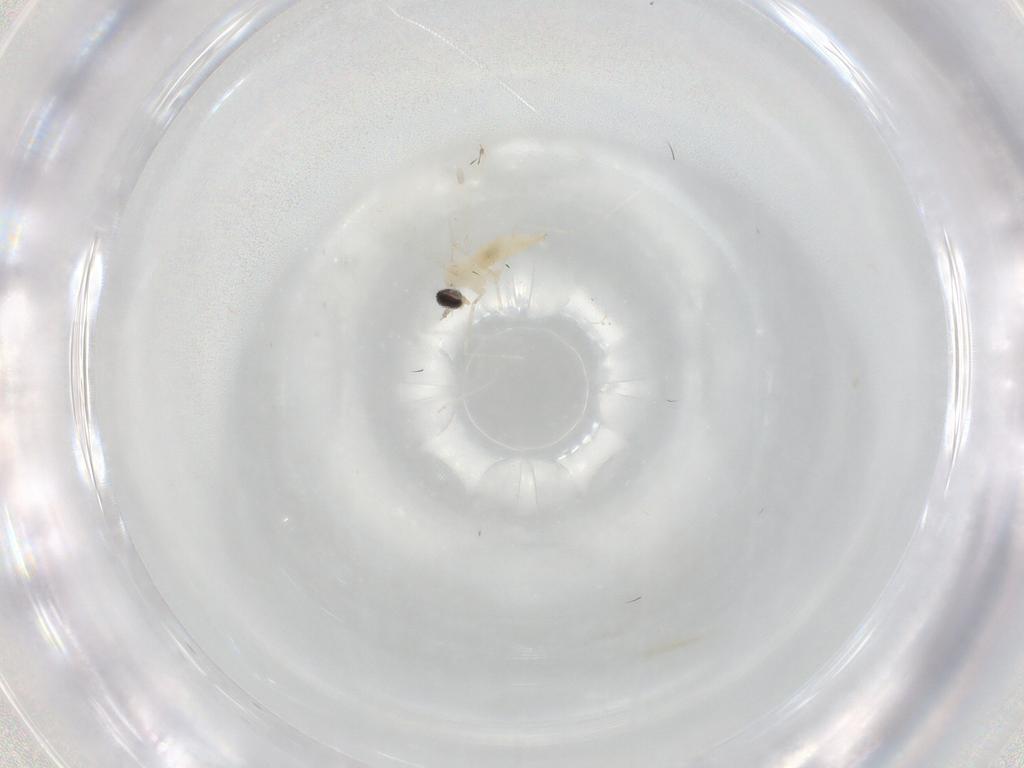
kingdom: Animalia
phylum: Arthropoda
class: Insecta
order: Diptera
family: Cecidomyiidae
